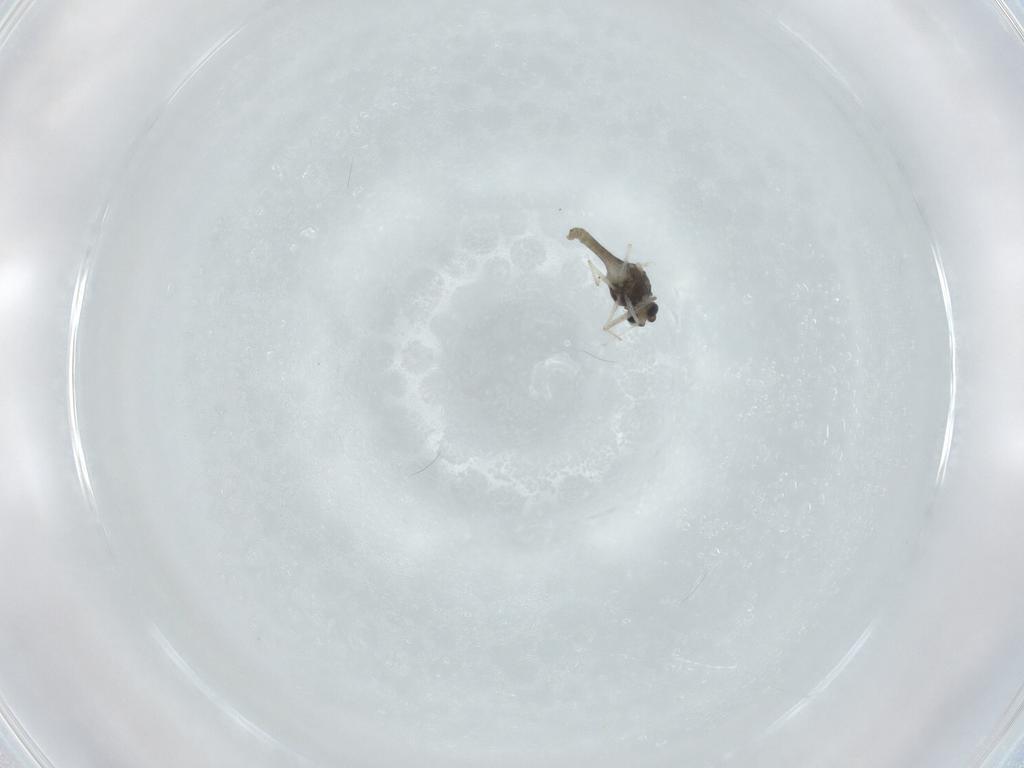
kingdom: Animalia
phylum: Arthropoda
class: Insecta
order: Diptera
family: Chironomidae
